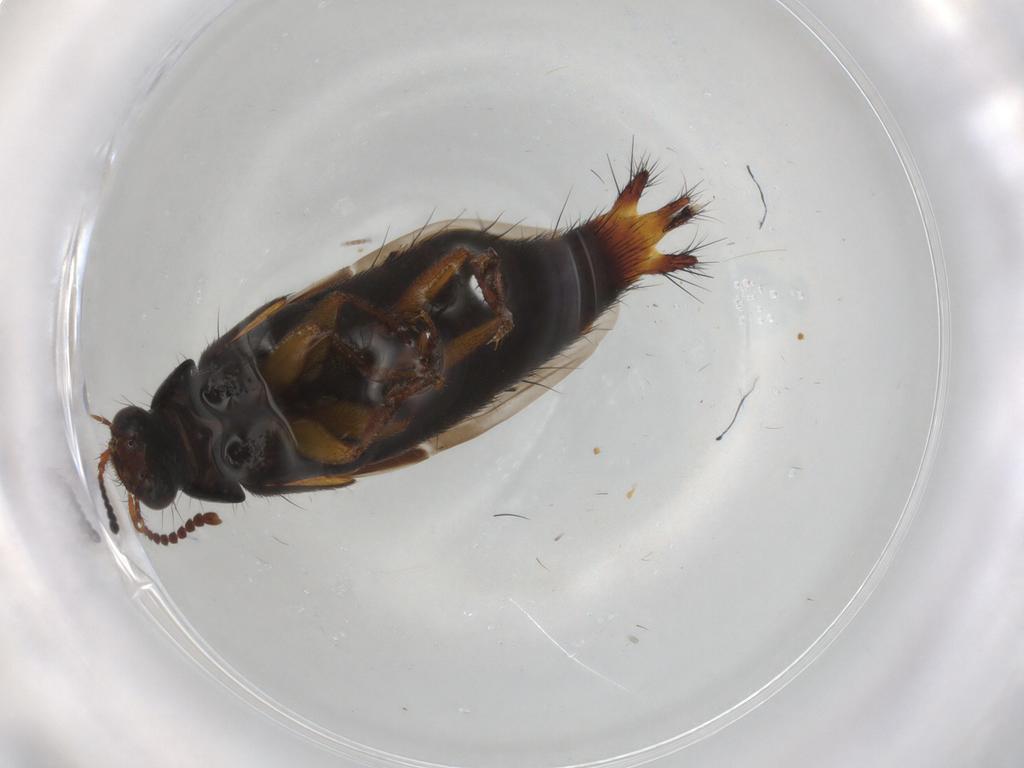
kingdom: Animalia
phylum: Arthropoda
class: Insecta
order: Coleoptera
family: Staphylinidae
